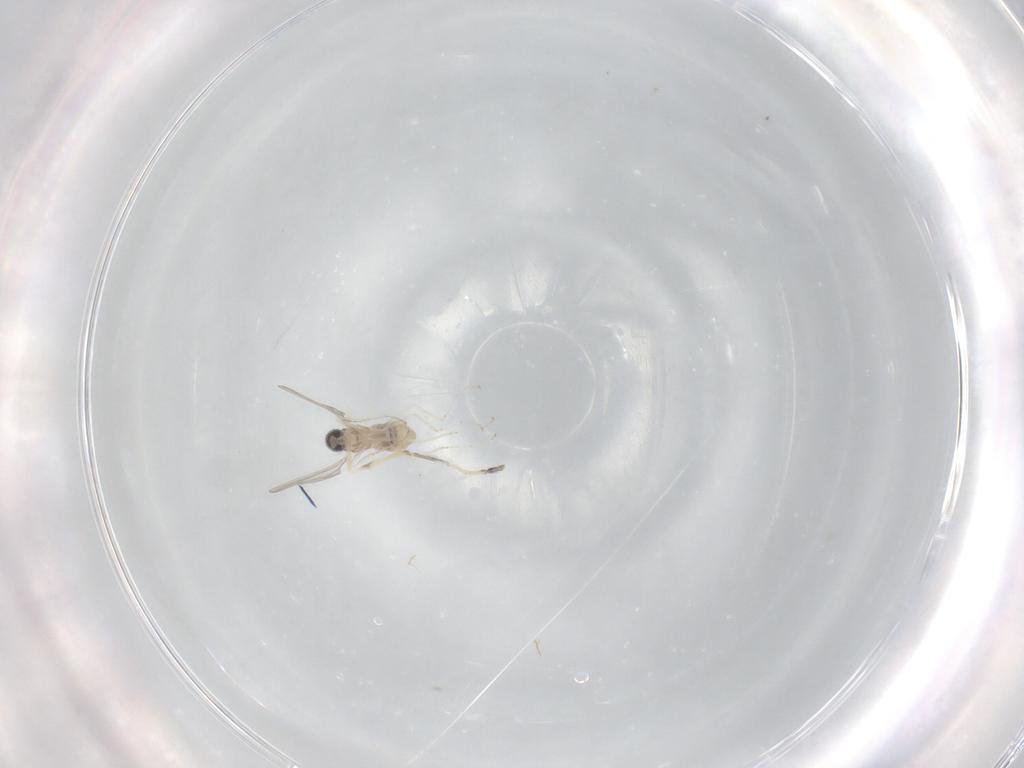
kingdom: Animalia
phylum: Arthropoda
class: Insecta
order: Diptera
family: Cecidomyiidae
